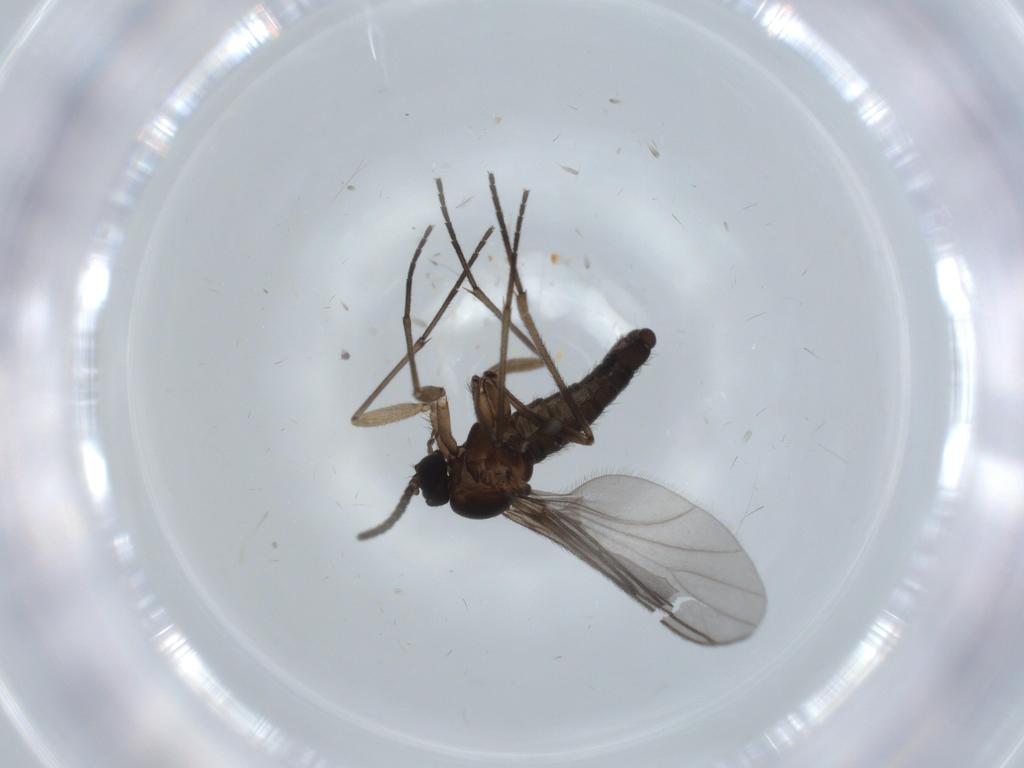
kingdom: Animalia
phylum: Arthropoda
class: Insecta
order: Diptera
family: Sciaridae
